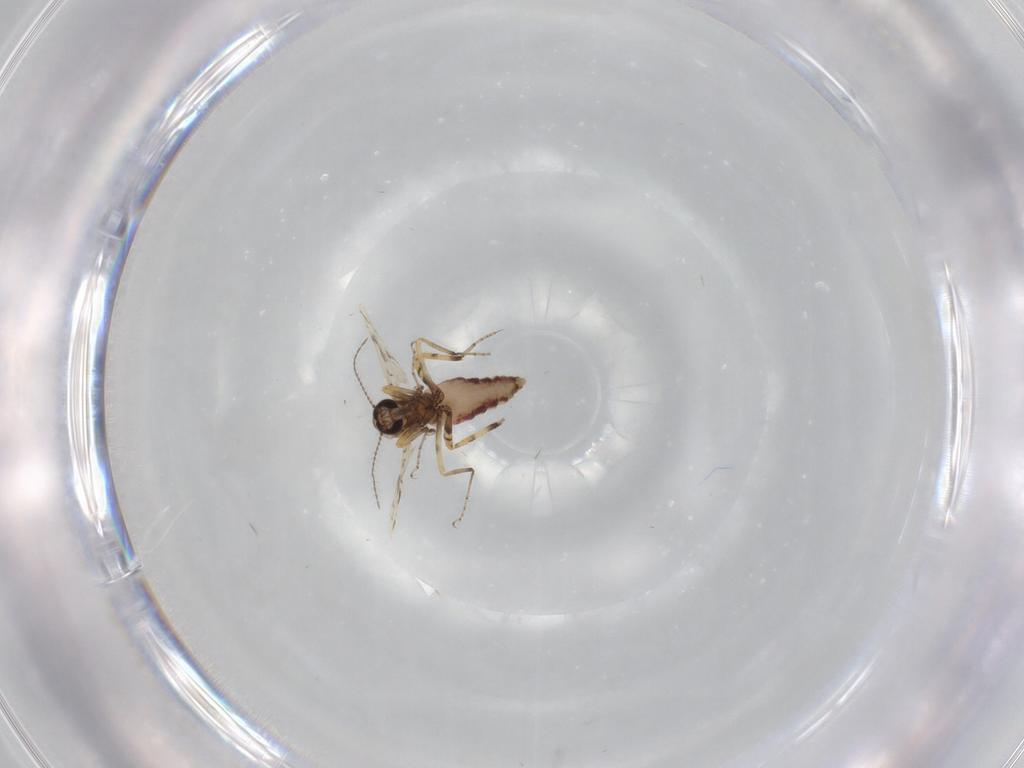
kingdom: Animalia
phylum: Arthropoda
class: Insecta
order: Diptera
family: Ceratopogonidae
